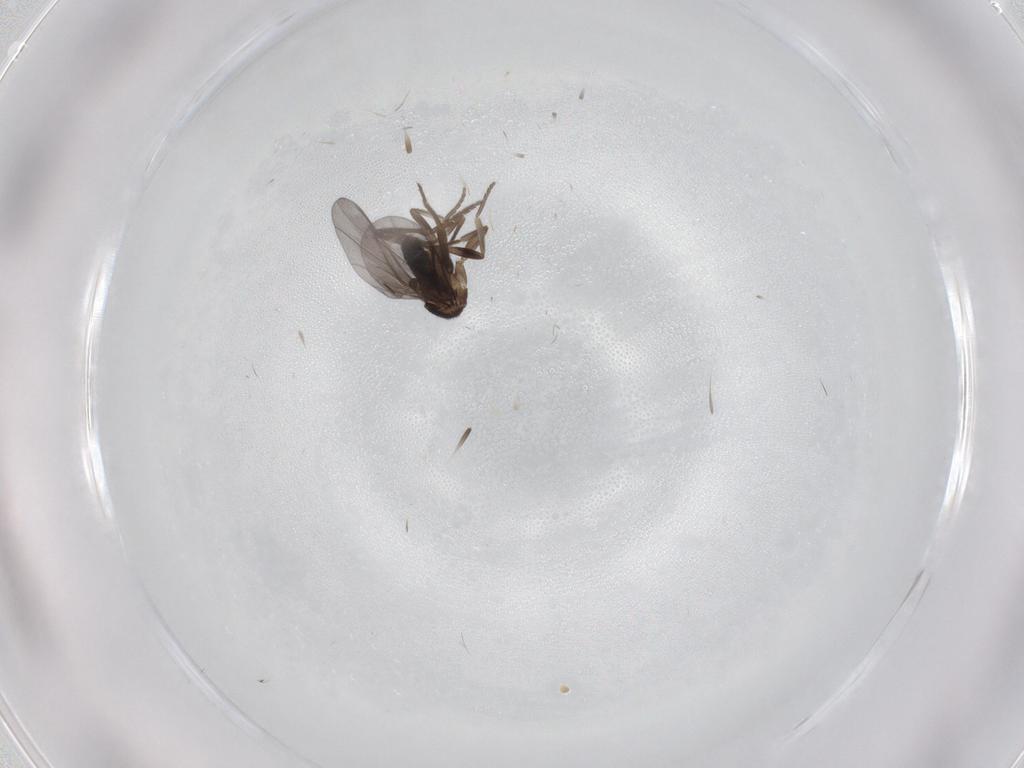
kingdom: Animalia
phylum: Arthropoda
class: Insecta
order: Diptera
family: Phoridae
